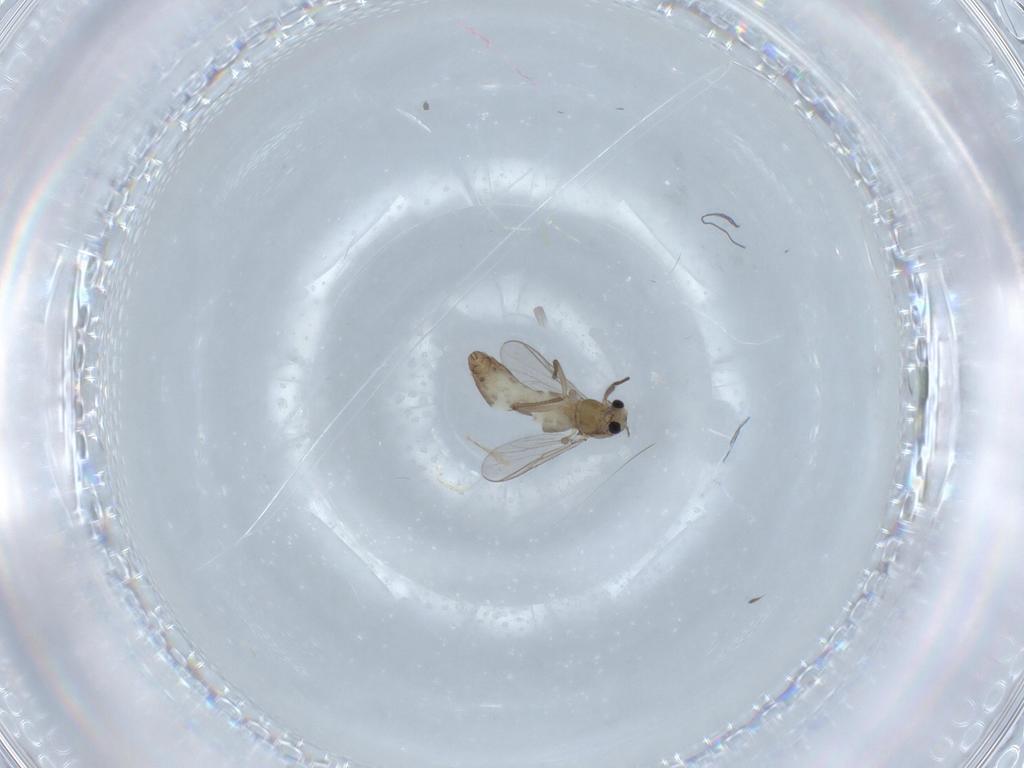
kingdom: Animalia
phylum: Arthropoda
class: Insecta
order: Diptera
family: Chironomidae
